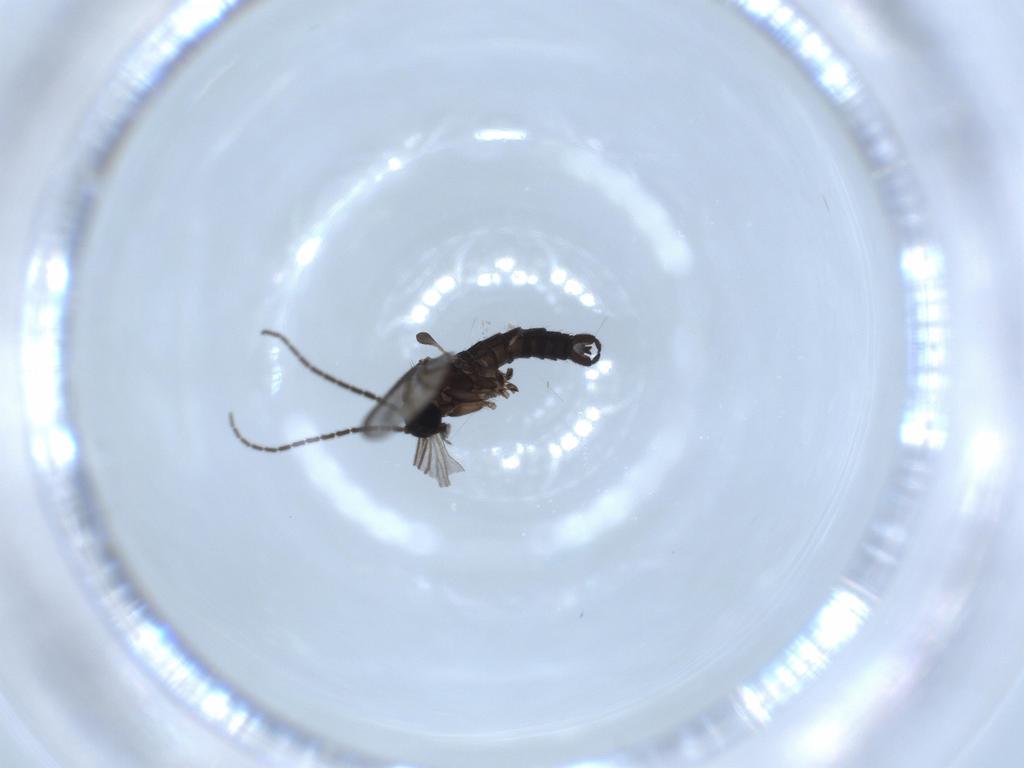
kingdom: Animalia
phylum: Arthropoda
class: Insecta
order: Diptera
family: Sciaridae
